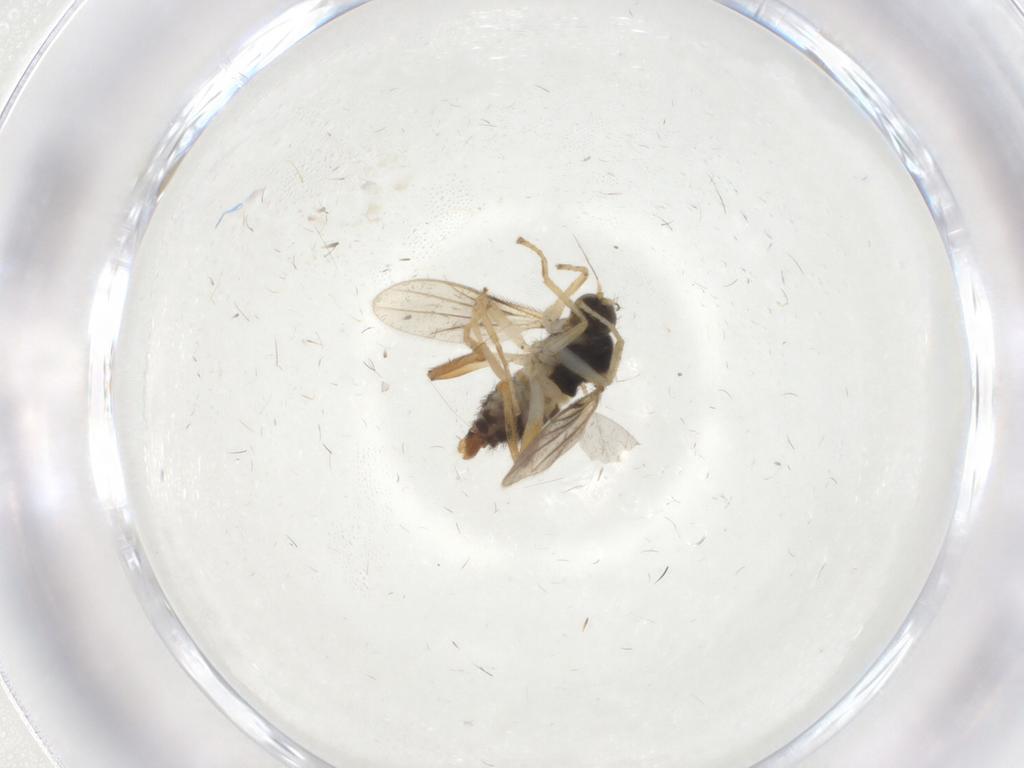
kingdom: Animalia
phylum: Arthropoda
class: Insecta
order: Diptera
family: Hybotidae
